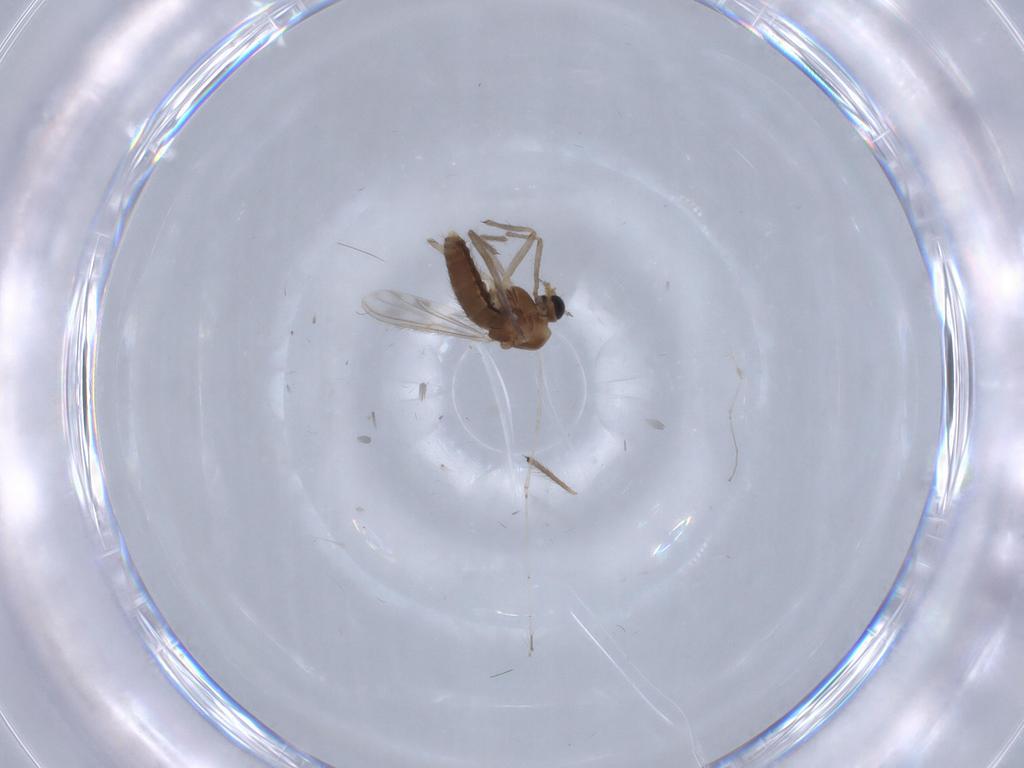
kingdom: Animalia
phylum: Arthropoda
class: Insecta
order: Diptera
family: Chironomidae
